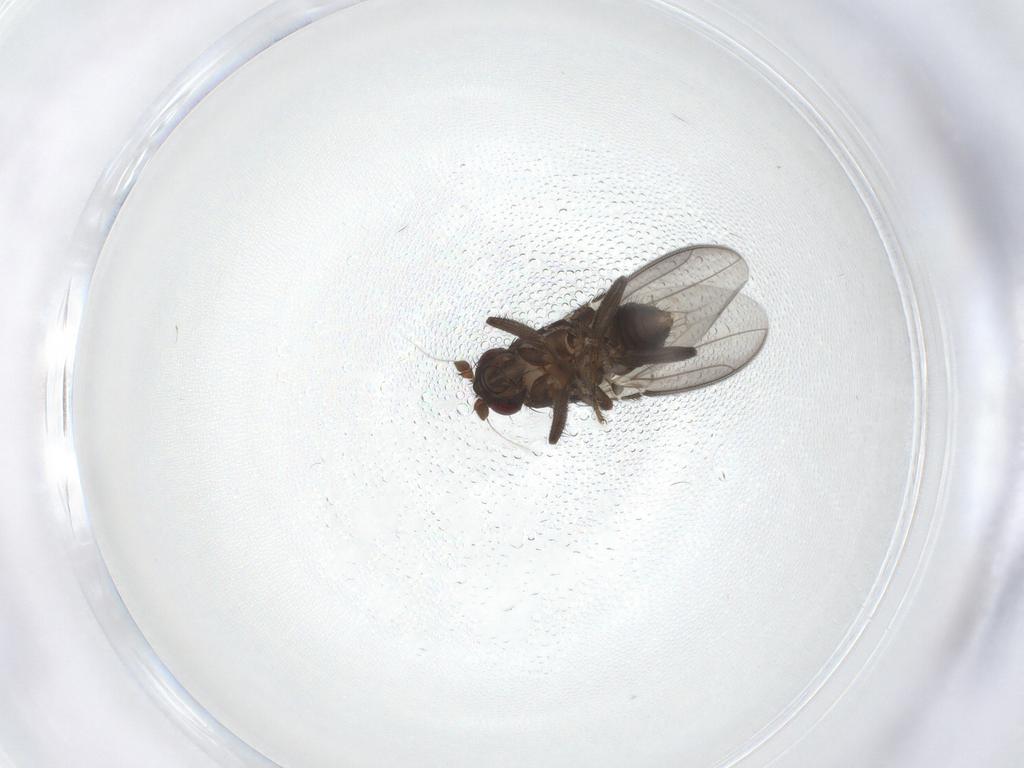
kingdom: Animalia
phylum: Arthropoda
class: Insecta
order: Diptera
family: Sphaeroceridae
